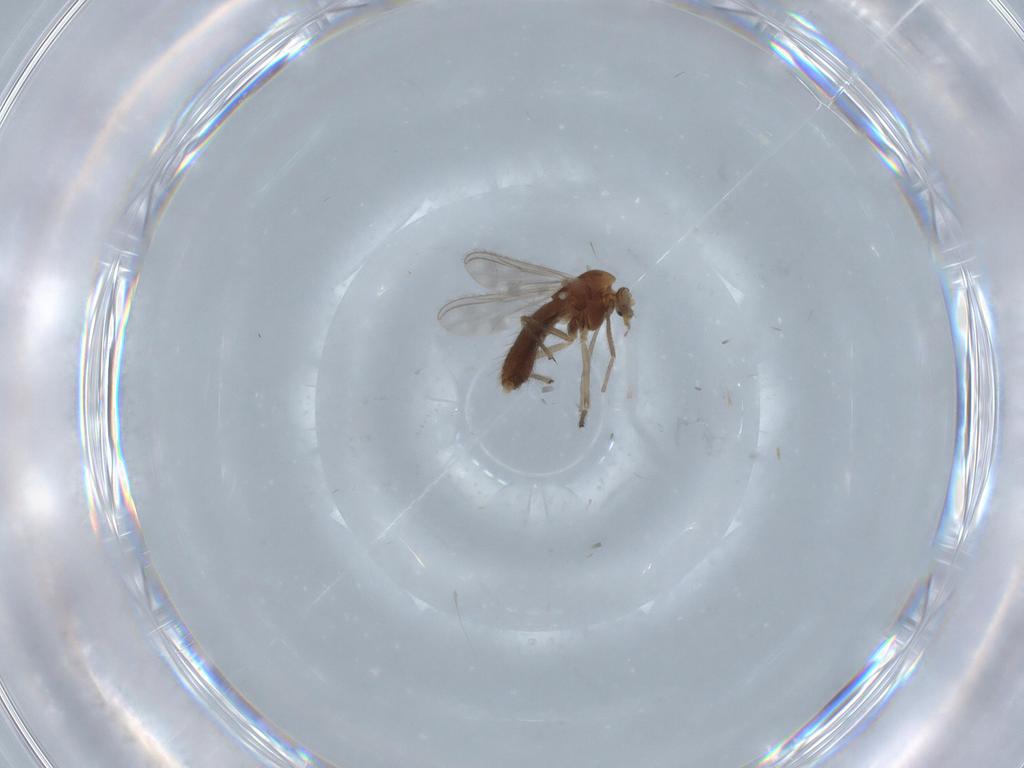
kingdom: Animalia
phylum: Arthropoda
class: Insecta
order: Diptera
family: Chironomidae
